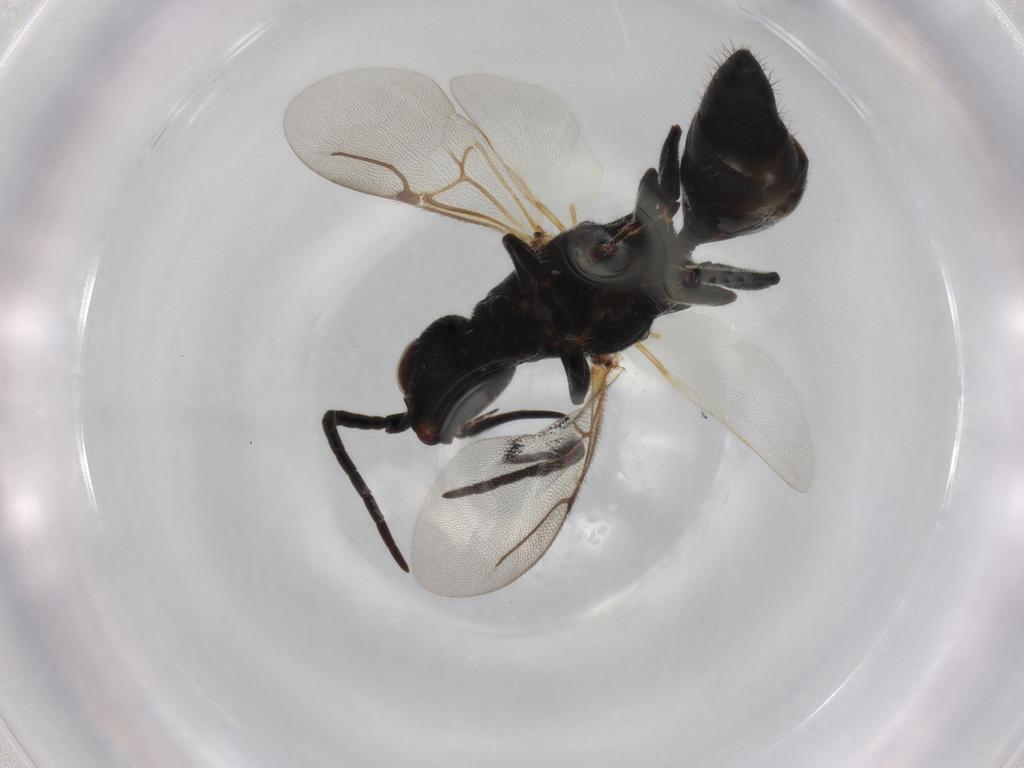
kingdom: Animalia
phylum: Arthropoda
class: Insecta
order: Hymenoptera
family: Bethylidae
